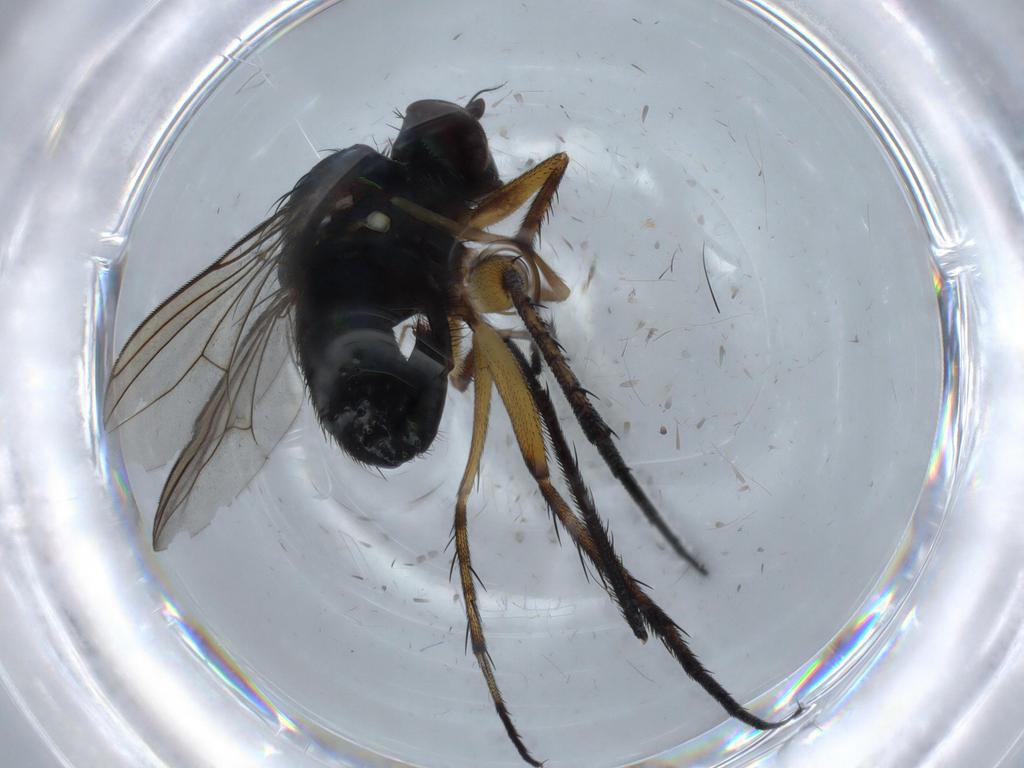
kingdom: Animalia
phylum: Arthropoda
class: Insecta
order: Diptera
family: Dolichopodidae
